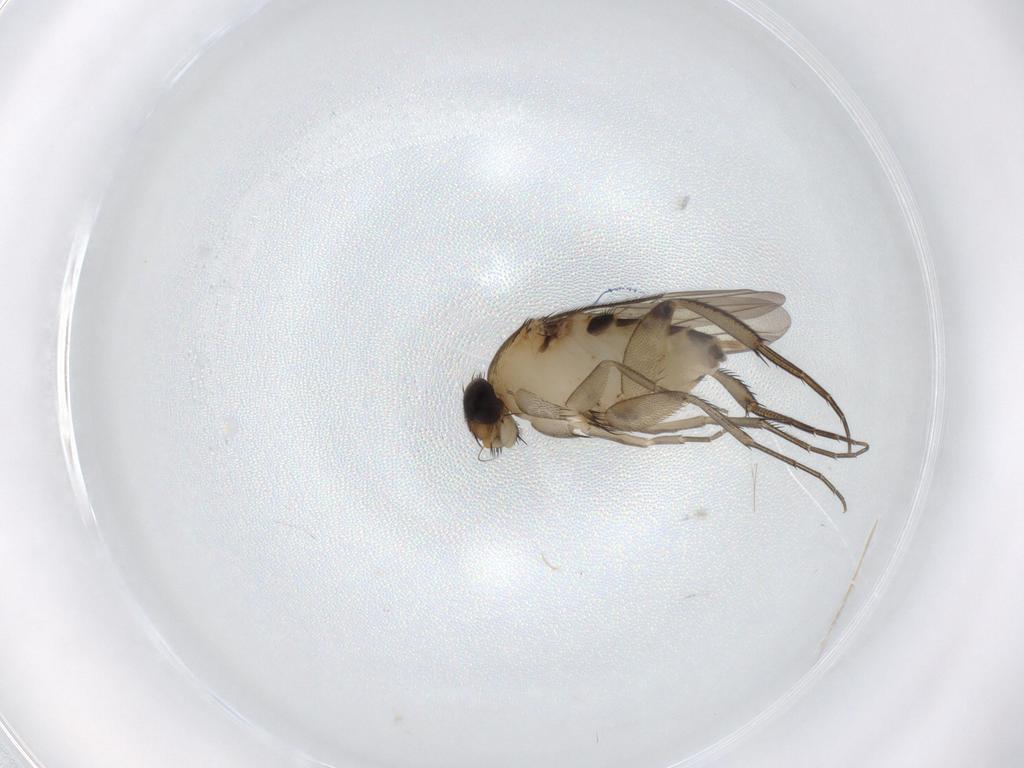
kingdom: Animalia
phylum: Arthropoda
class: Insecta
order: Diptera
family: Phoridae
